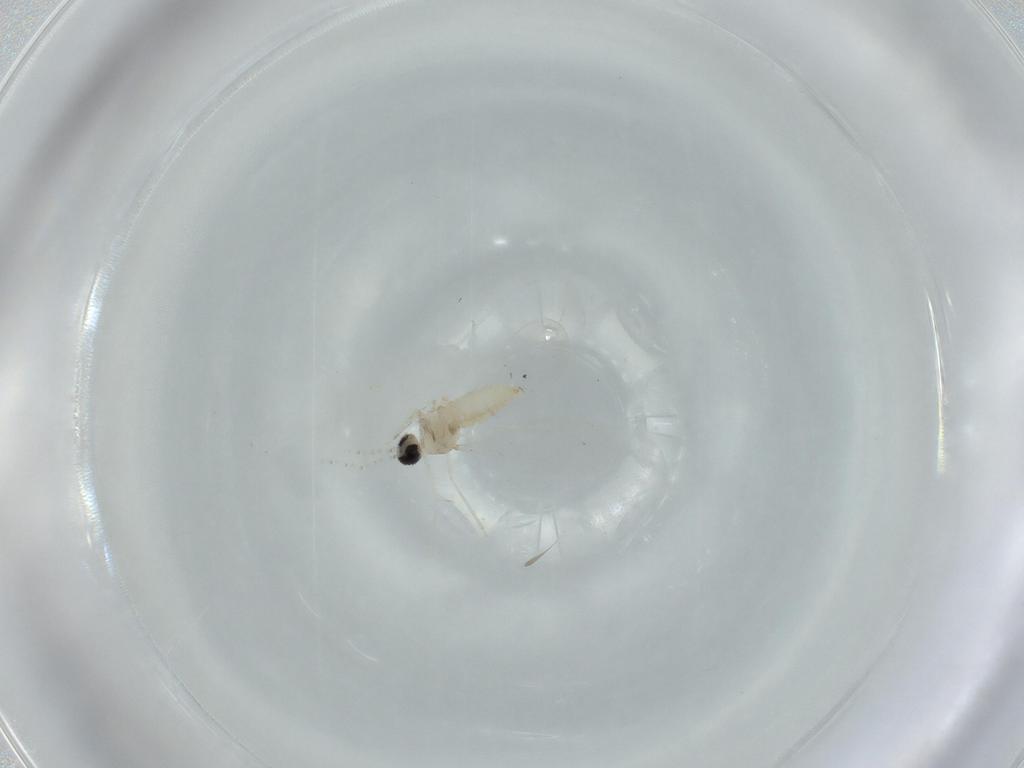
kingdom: Animalia
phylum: Arthropoda
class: Insecta
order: Diptera
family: Cecidomyiidae
